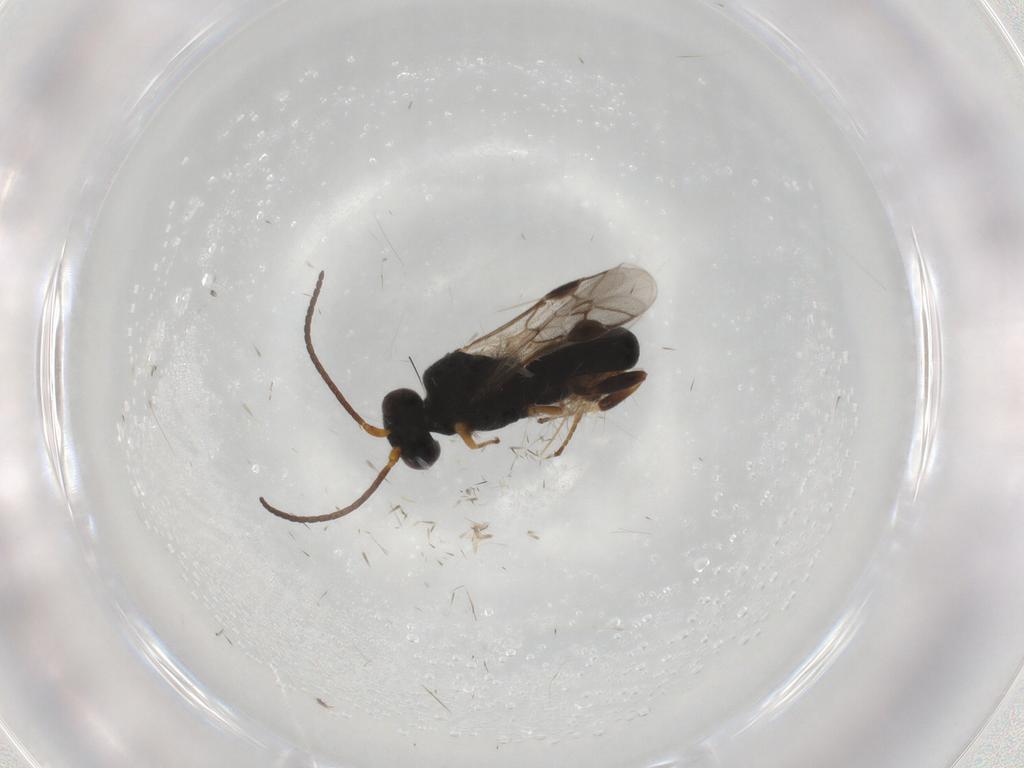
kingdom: Animalia
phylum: Arthropoda
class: Insecta
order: Hymenoptera
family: Braconidae
